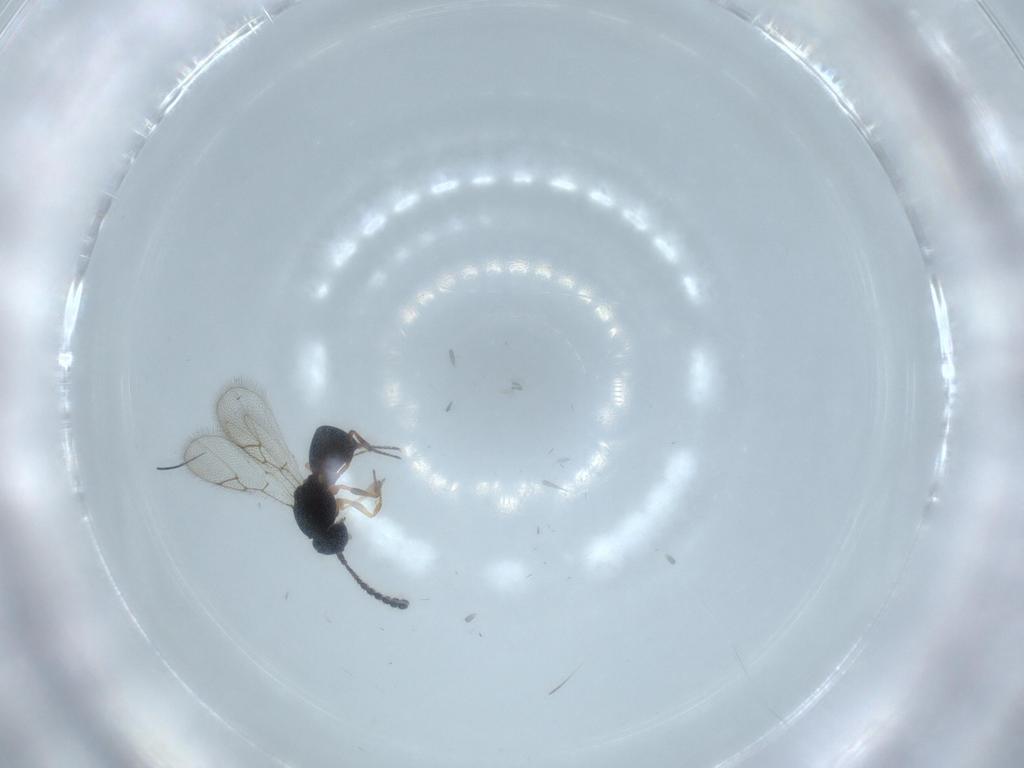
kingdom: Animalia
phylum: Arthropoda
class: Insecta
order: Hymenoptera
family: Figitidae
